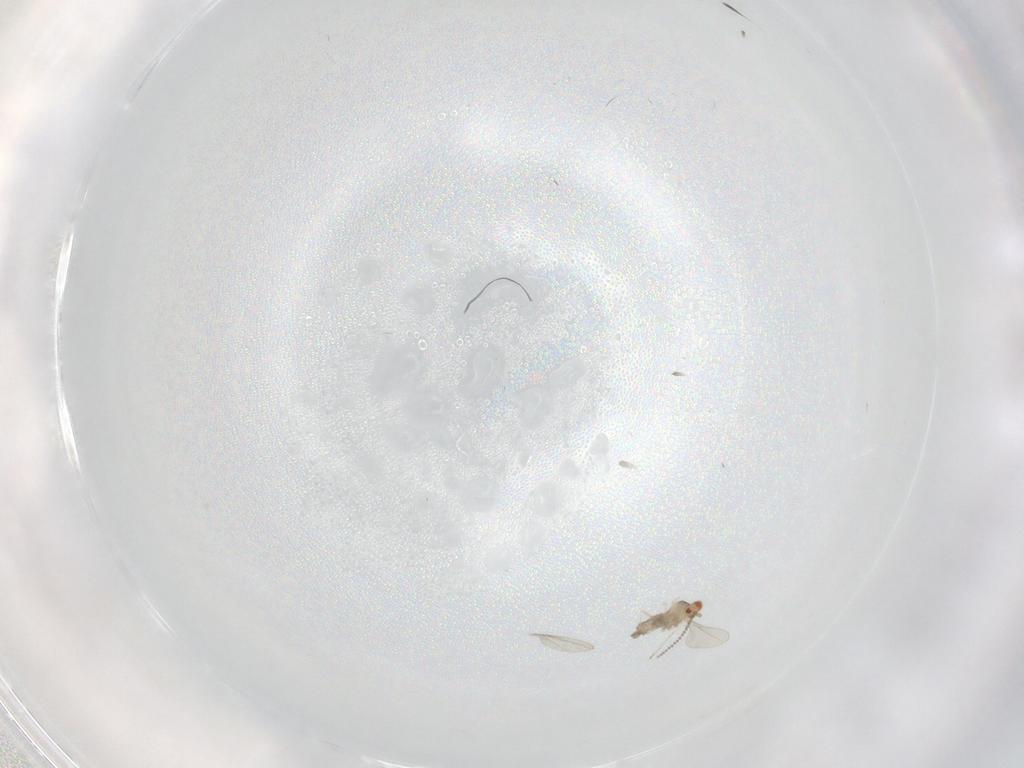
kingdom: Animalia
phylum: Arthropoda
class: Insecta
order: Diptera
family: Cecidomyiidae
